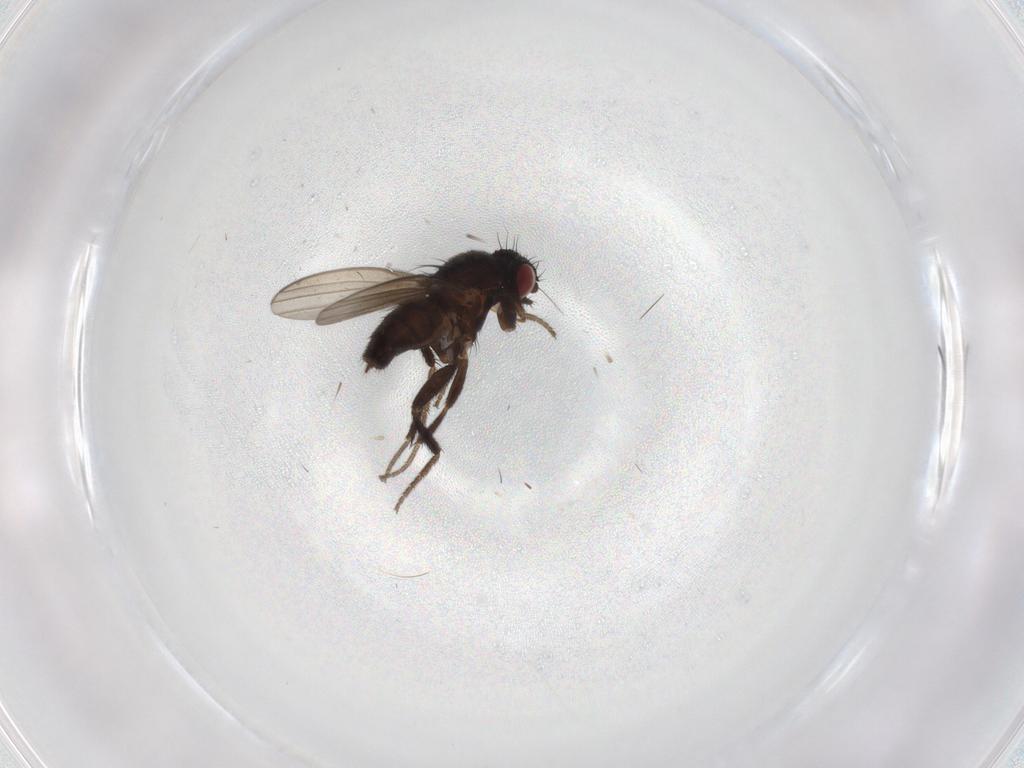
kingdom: Animalia
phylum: Arthropoda
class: Insecta
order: Diptera
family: Milichiidae
